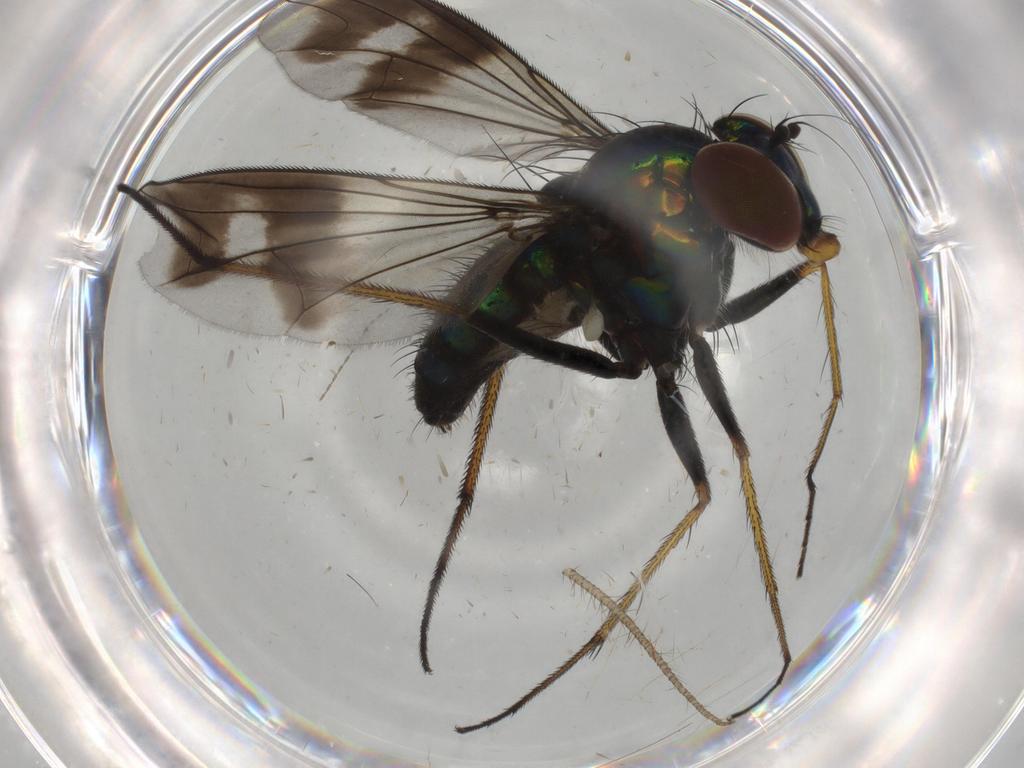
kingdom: Animalia
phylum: Arthropoda
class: Insecta
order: Diptera
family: Dolichopodidae
